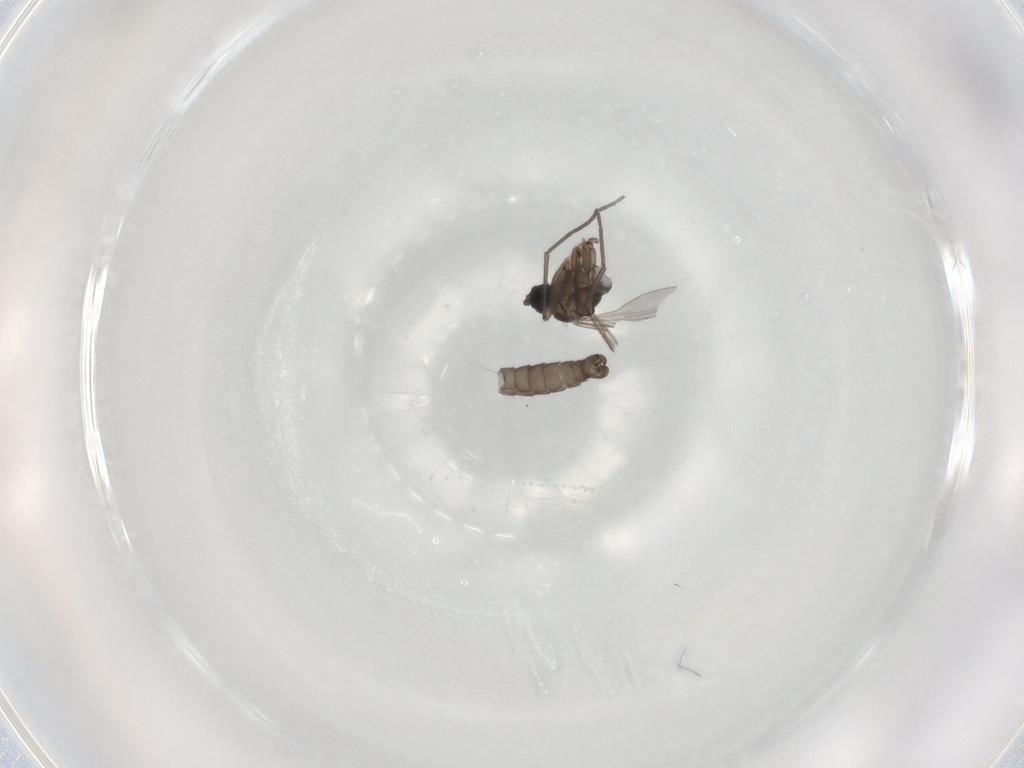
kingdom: Animalia
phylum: Arthropoda
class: Insecta
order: Diptera
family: Sciaridae
